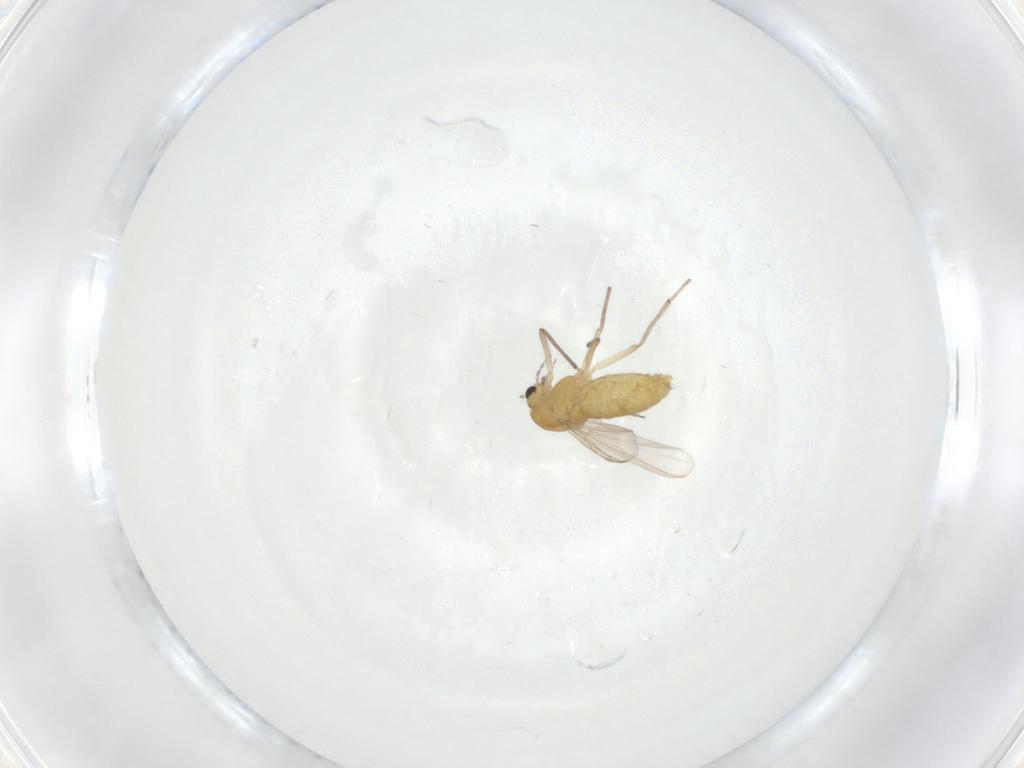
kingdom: Animalia
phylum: Arthropoda
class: Insecta
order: Diptera
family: Chironomidae
